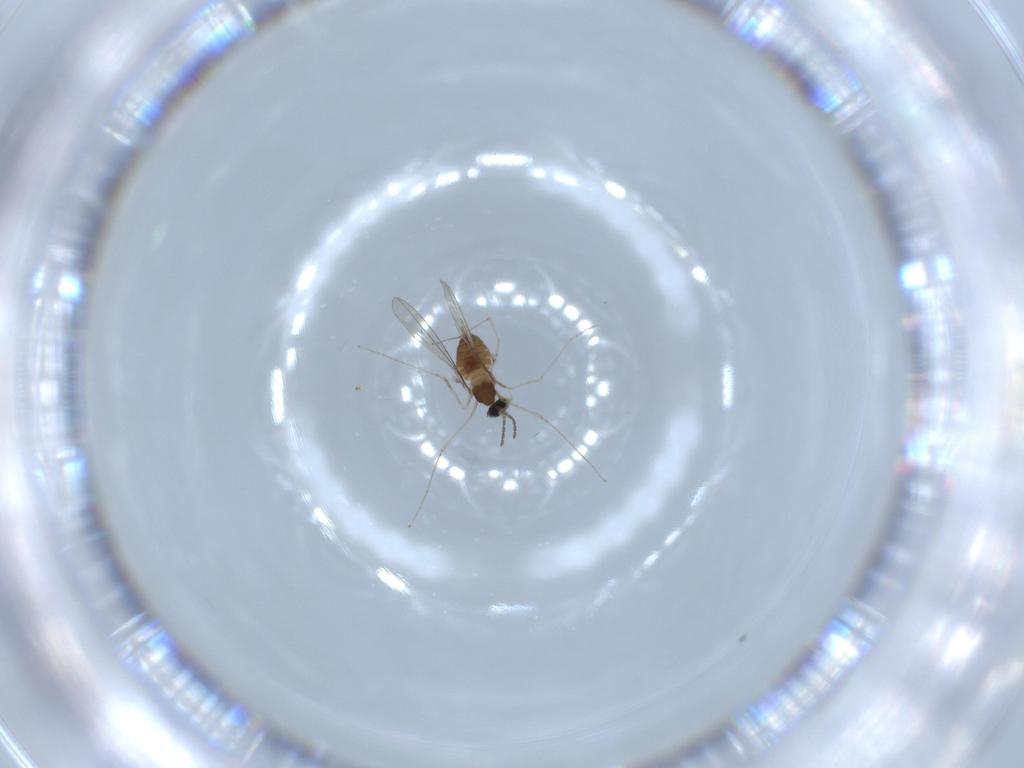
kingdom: Animalia
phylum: Arthropoda
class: Insecta
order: Diptera
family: Cecidomyiidae
